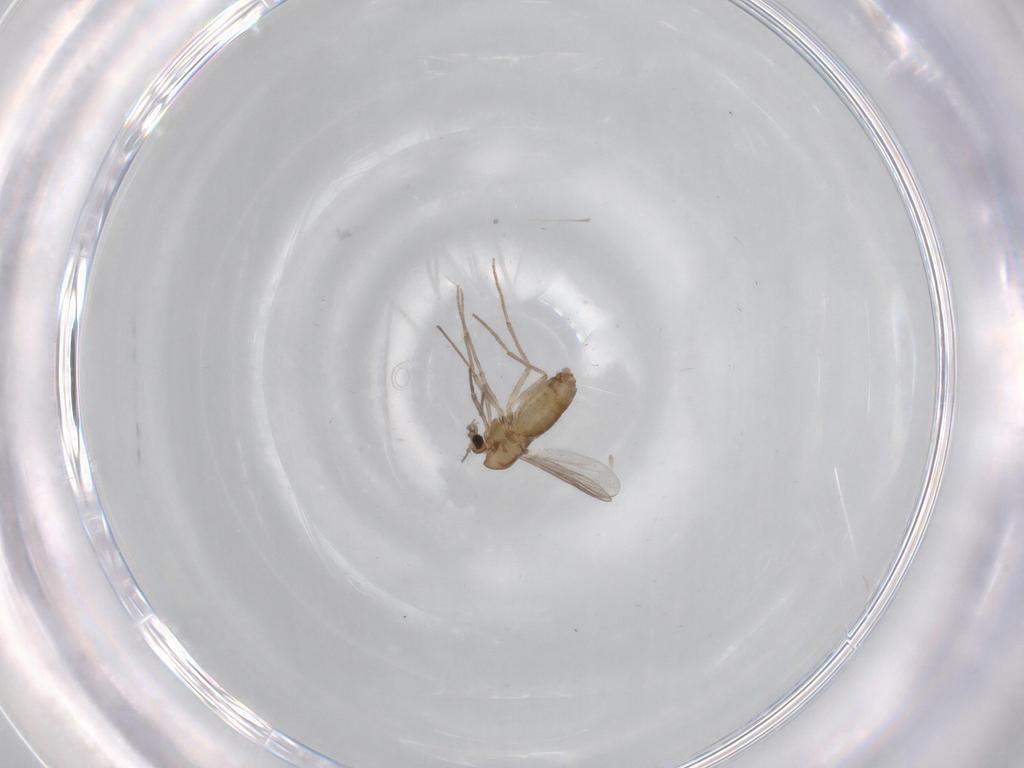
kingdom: Animalia
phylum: Arthropoda
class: Insecta
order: Diptera
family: Chironomidae
